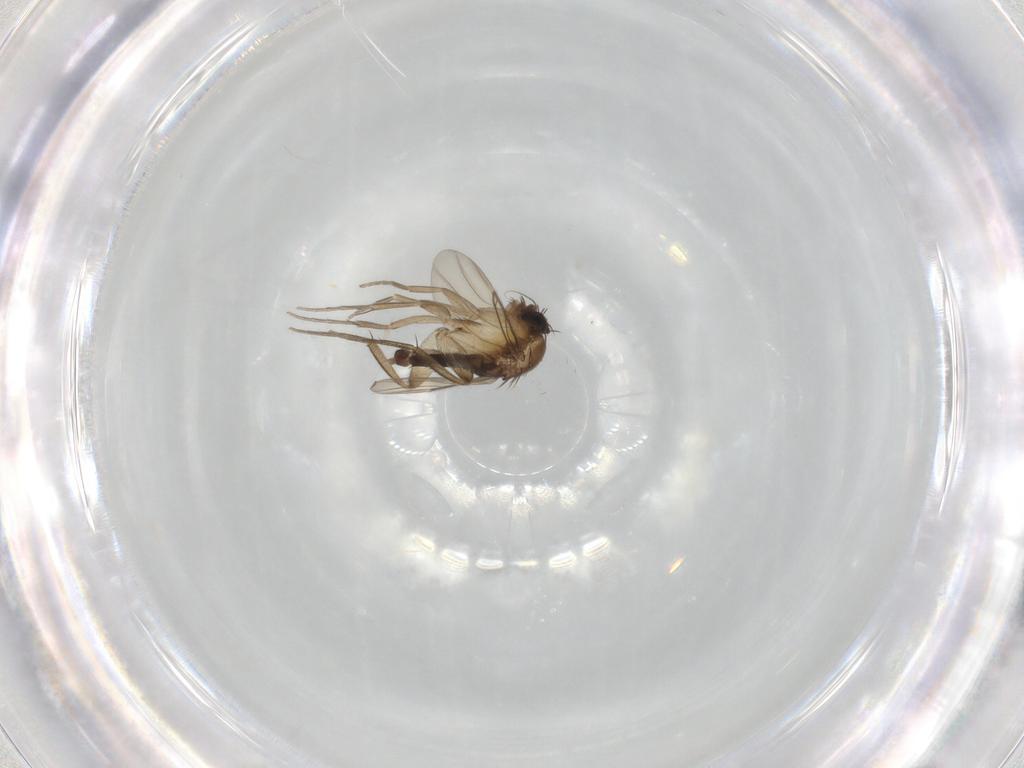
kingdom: Animalia
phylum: Arthropoda
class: Insecta
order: Diptera
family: Phoridae
